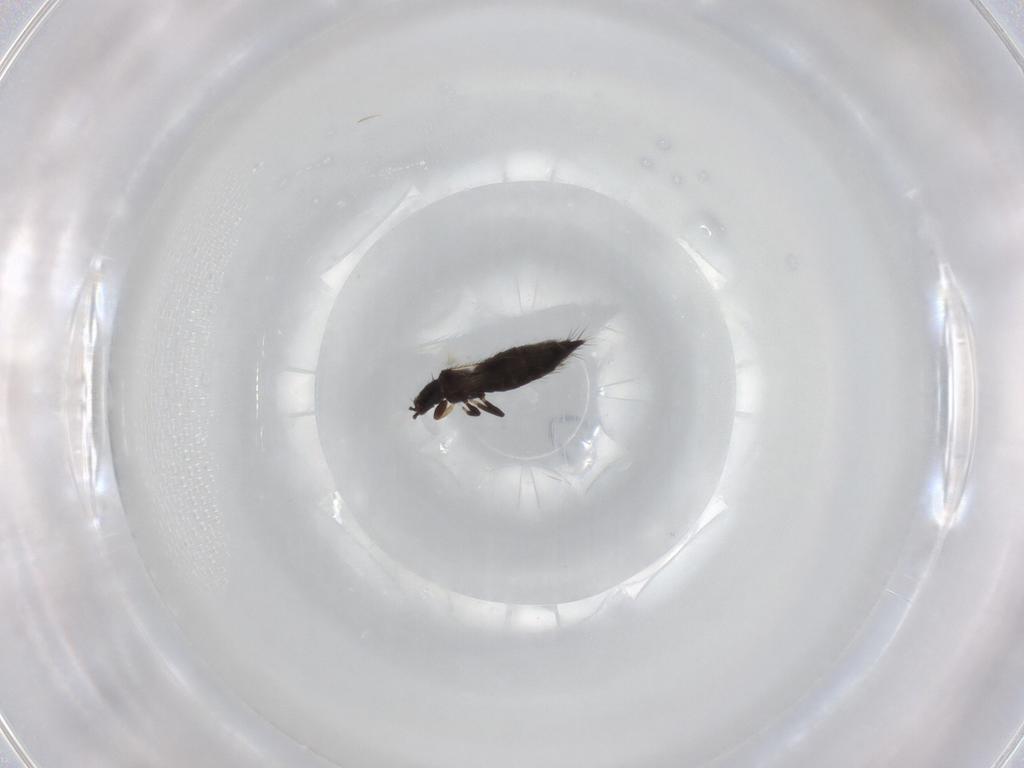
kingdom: Animalia
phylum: Arthropoda
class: Insecta
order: Thysanoptera
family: Thripidae
